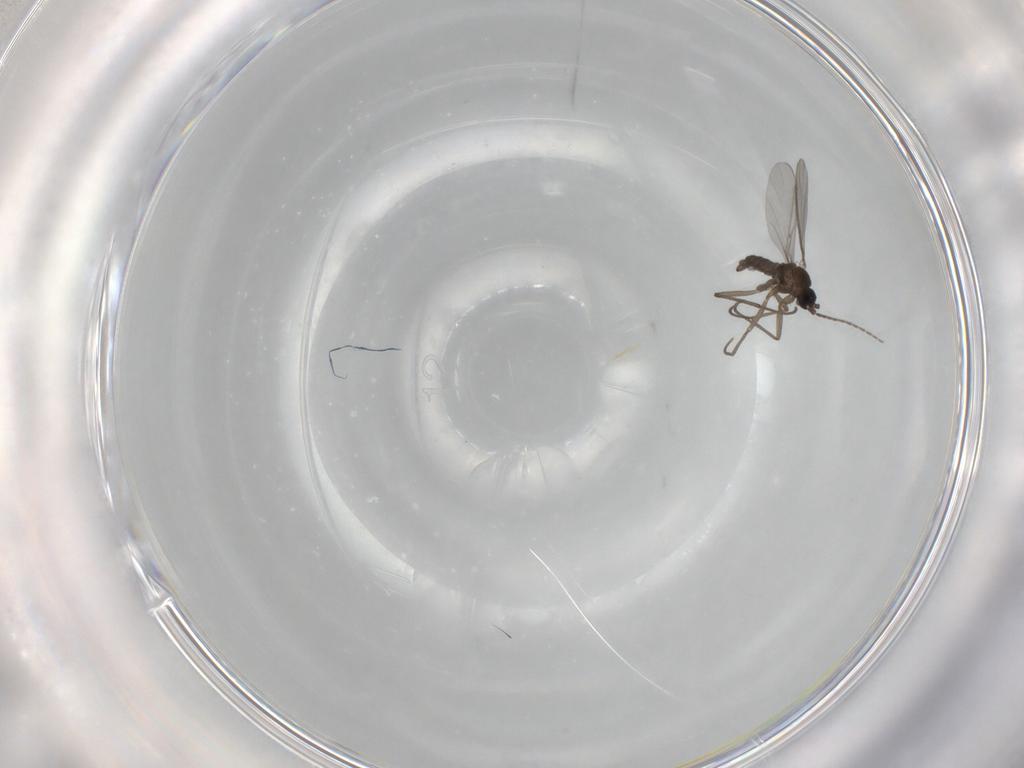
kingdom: Animalia
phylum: Arthropoda
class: Insecta
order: Diptera
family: Sciaridae
